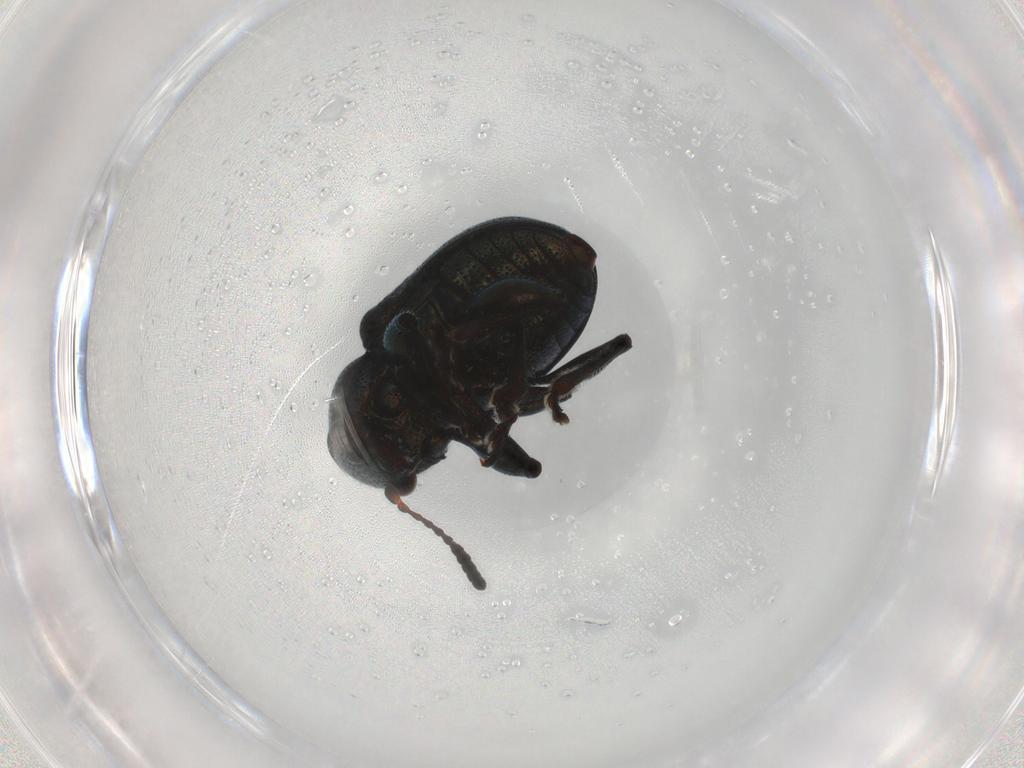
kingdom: Animalia
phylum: Arthropoda
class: Insecta
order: Coleoptera
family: Chrysomelidae
